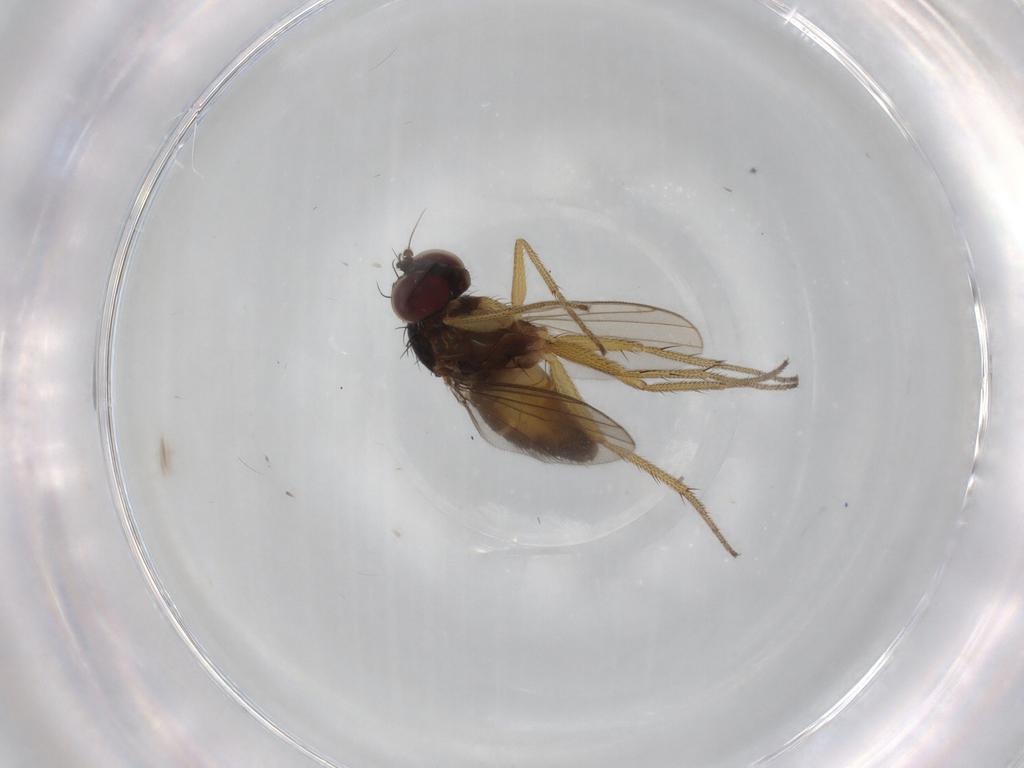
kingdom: Animalia
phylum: Arthropoda
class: Insecta
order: Diptera
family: Dolichopodidae
